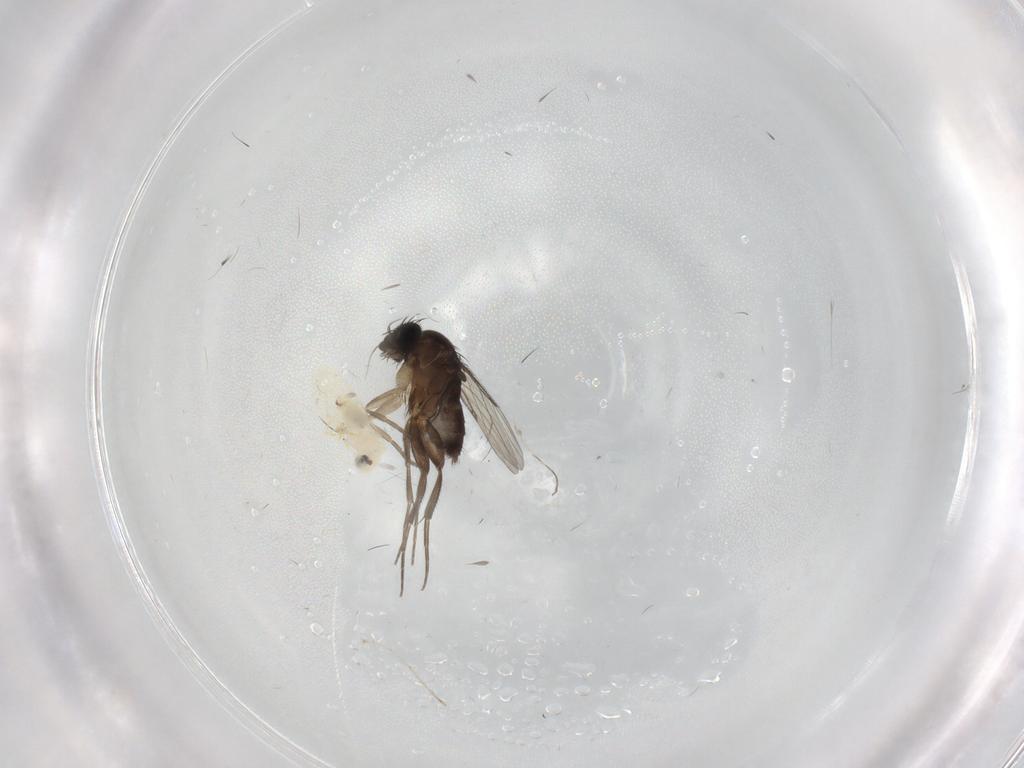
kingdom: Animalia
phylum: Arthropoda
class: Insecta
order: Diptera
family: Phoridae
